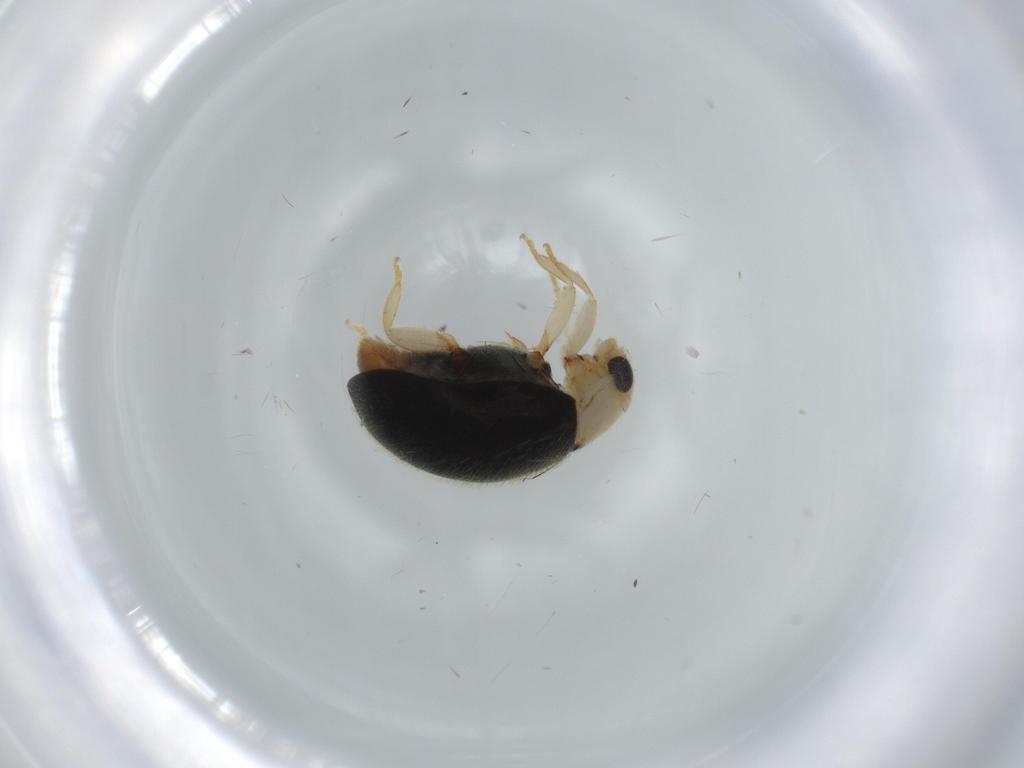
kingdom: Animalia
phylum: Arthropoda
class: Insecta
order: Coleoptera
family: Coccinellidae
